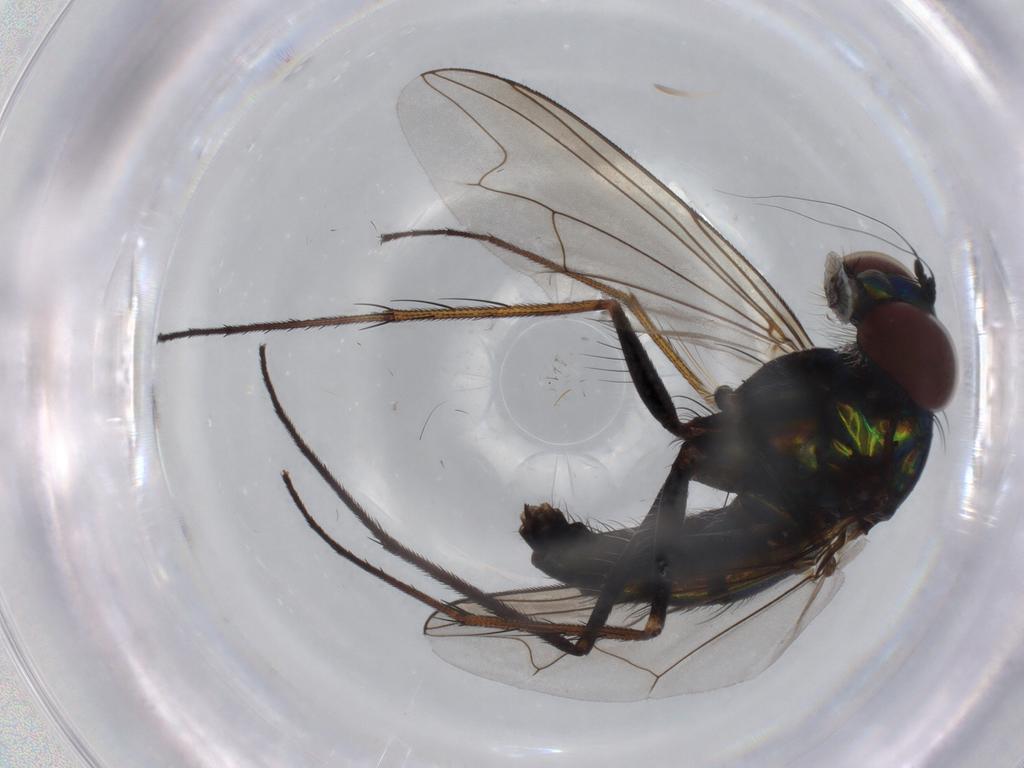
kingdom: Animalia
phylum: Arthropoda
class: Insecta
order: Diptera
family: Dolichopodidae
